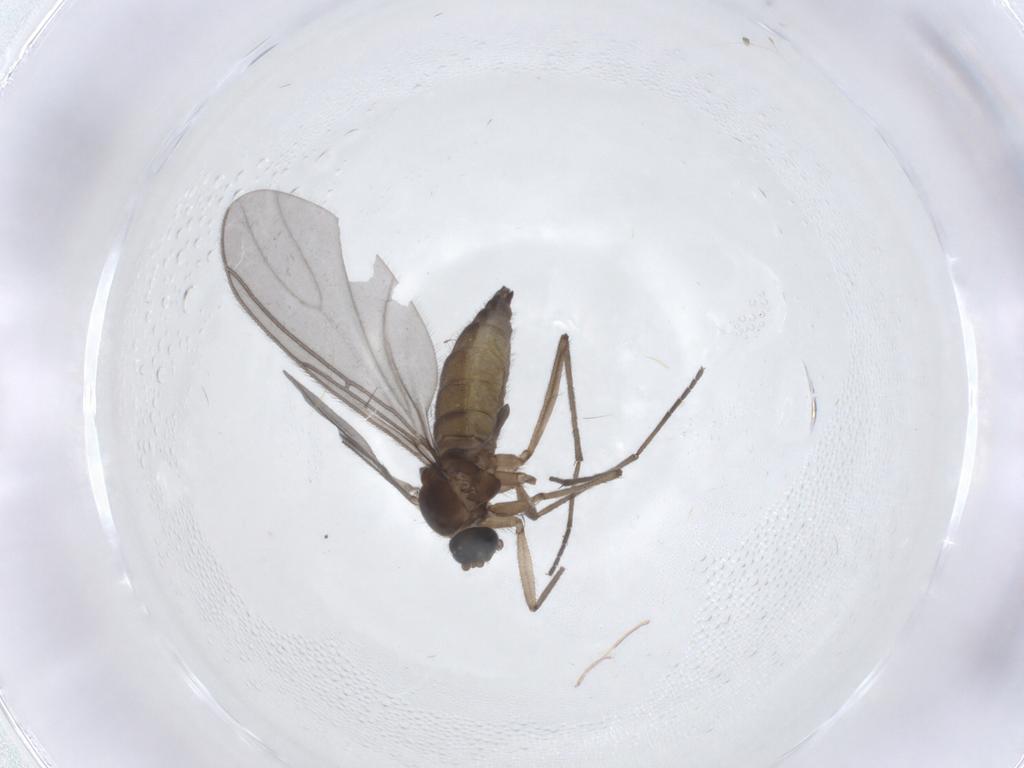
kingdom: Animalia
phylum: Arthropoda
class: Insecta
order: Diptera
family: Sciaridae
